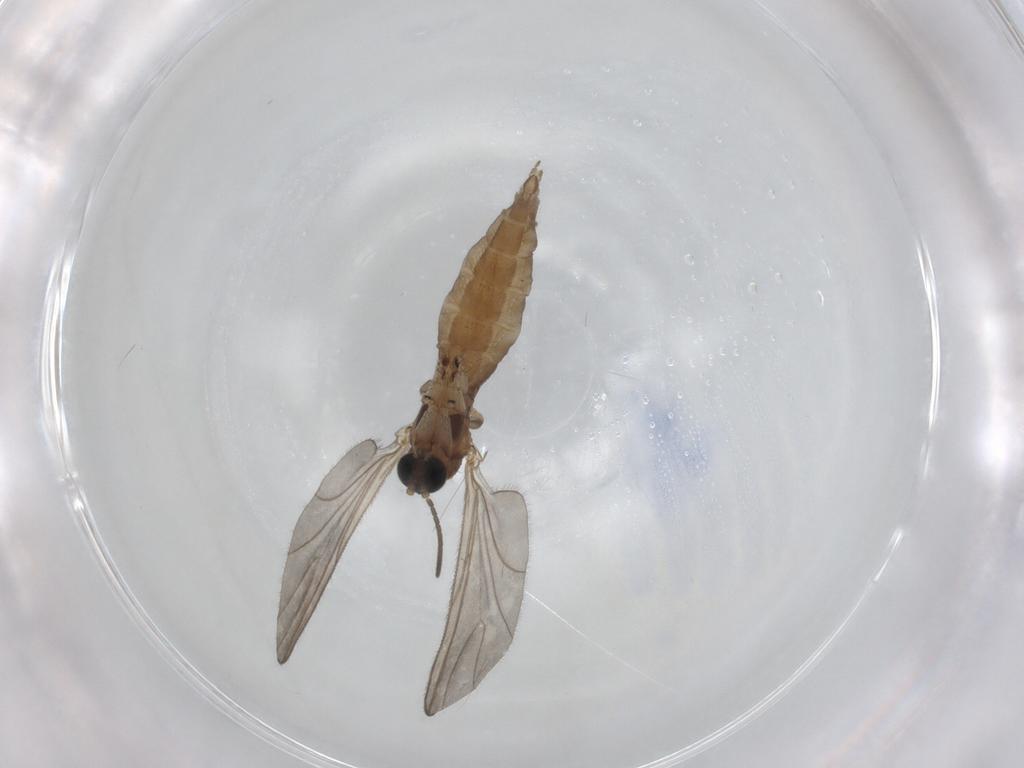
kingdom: Animalia
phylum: Arthropoda
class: Insecta
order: Diptera
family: Sciaridae
